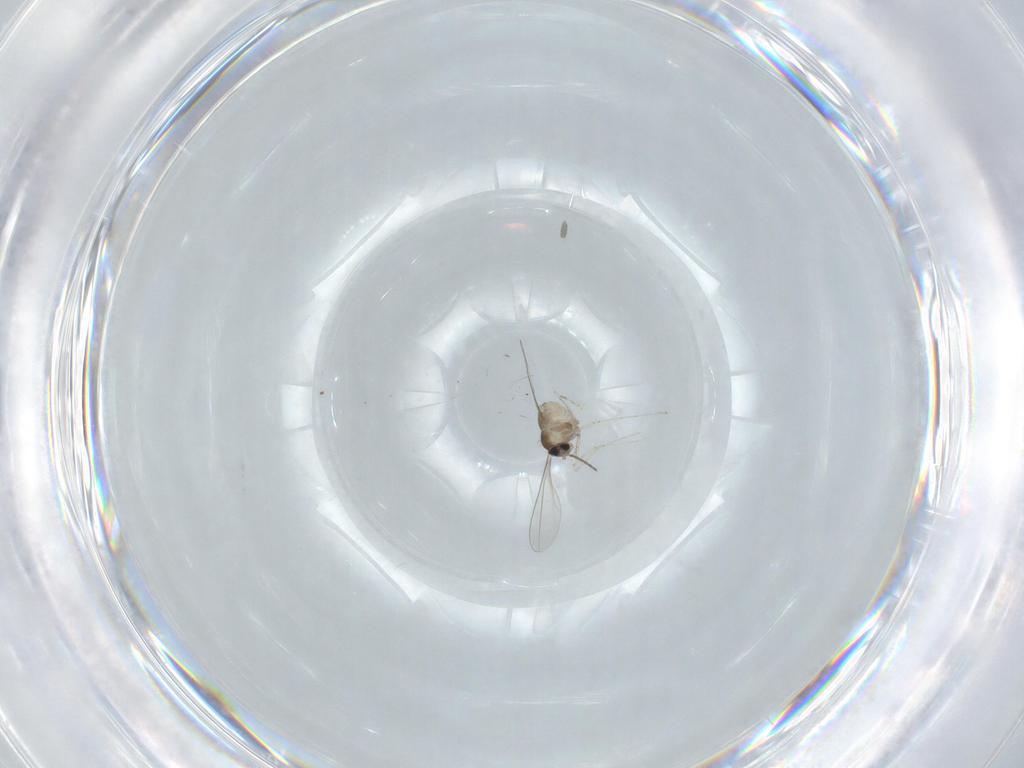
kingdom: Animalia
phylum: Arthropoda
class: Insecta
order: Diptera
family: Cecidomyiidae
